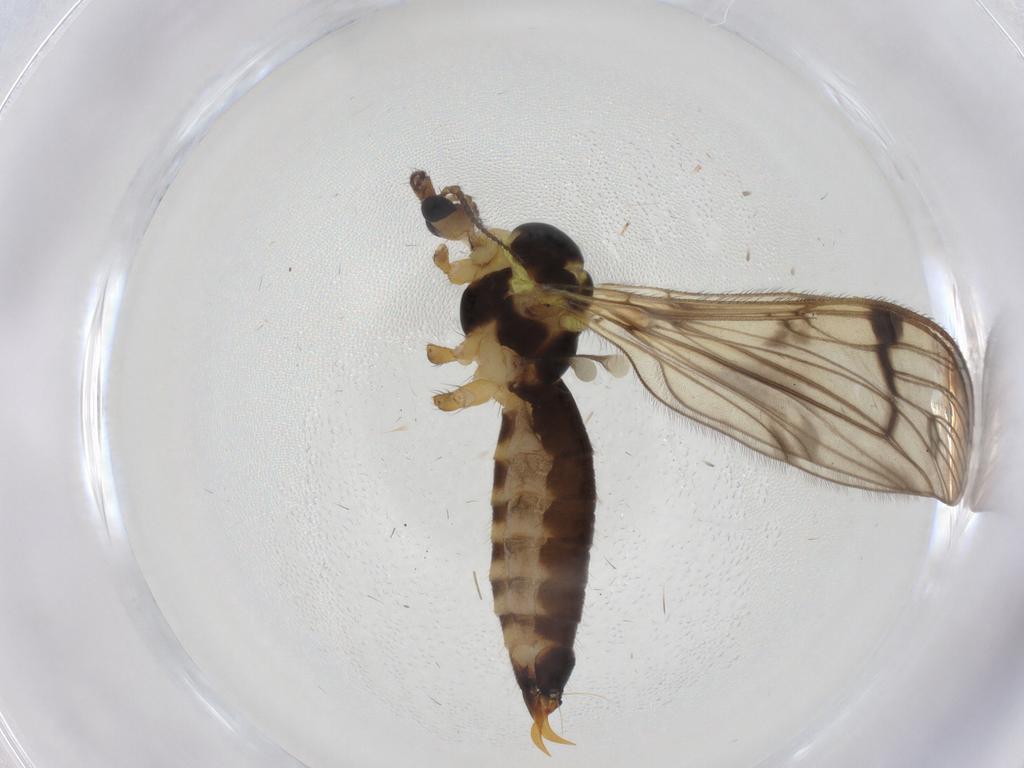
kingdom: Animalia
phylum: Arthropoda
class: Insecta
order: Diptera
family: Limoniidae
